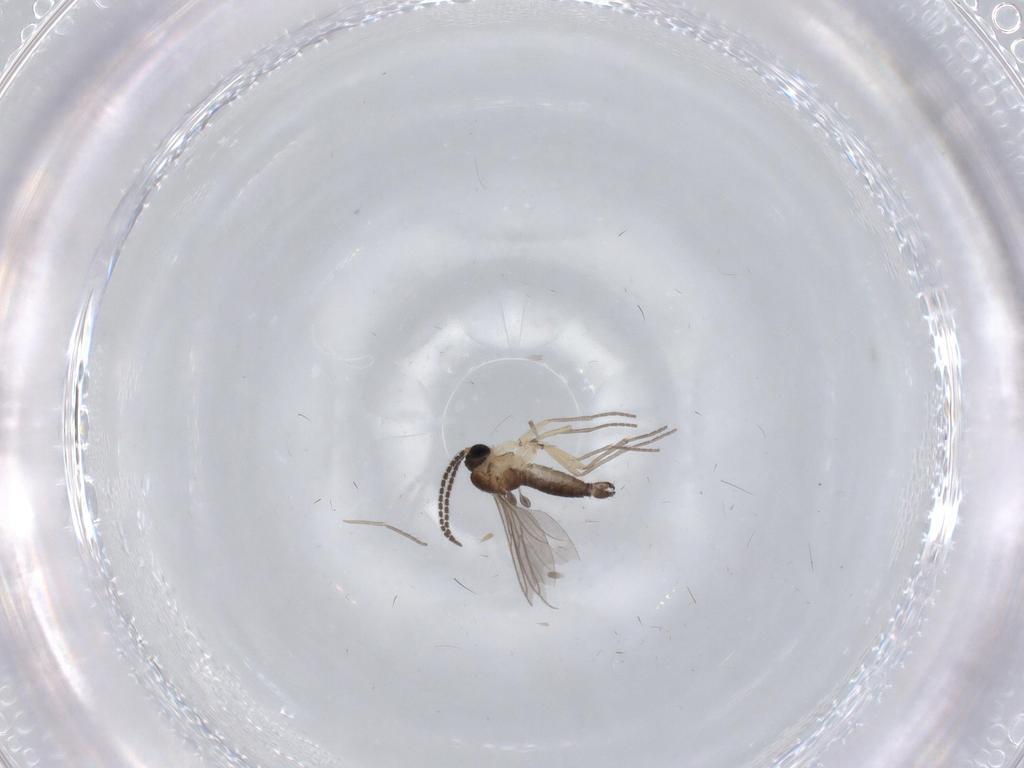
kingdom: Animalia
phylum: Arthropoda
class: Insecta
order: Diptera
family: Sciaridae
